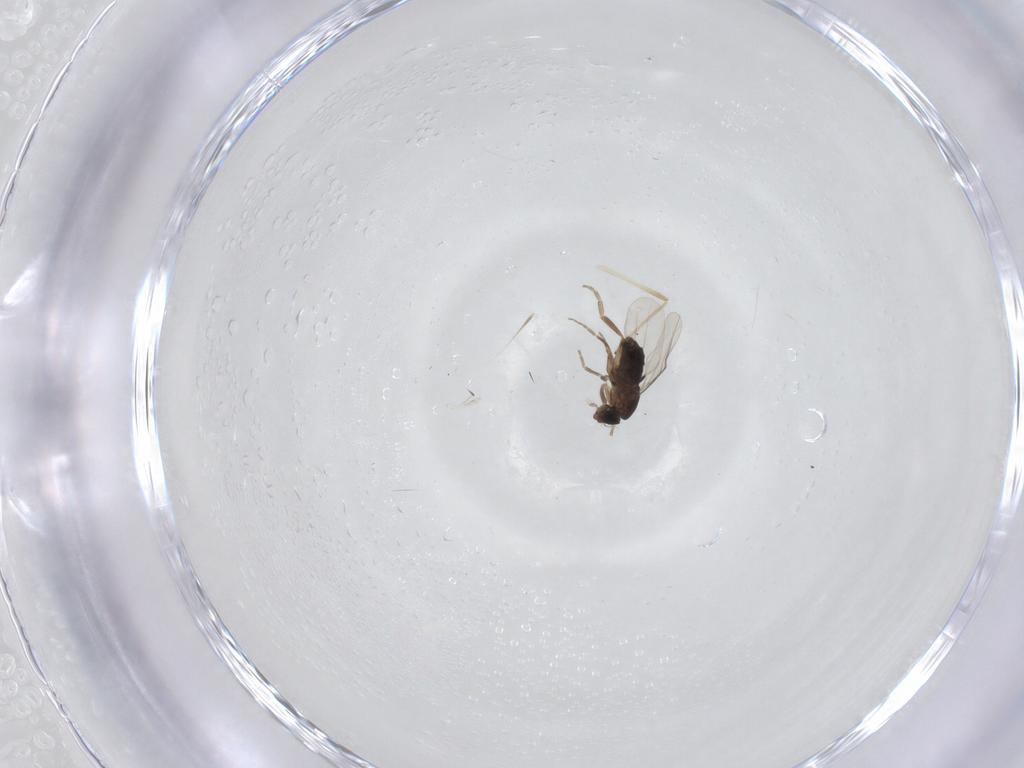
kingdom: Animalia
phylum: Arthropoda
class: Insecta
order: Diptera
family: Phoridae
